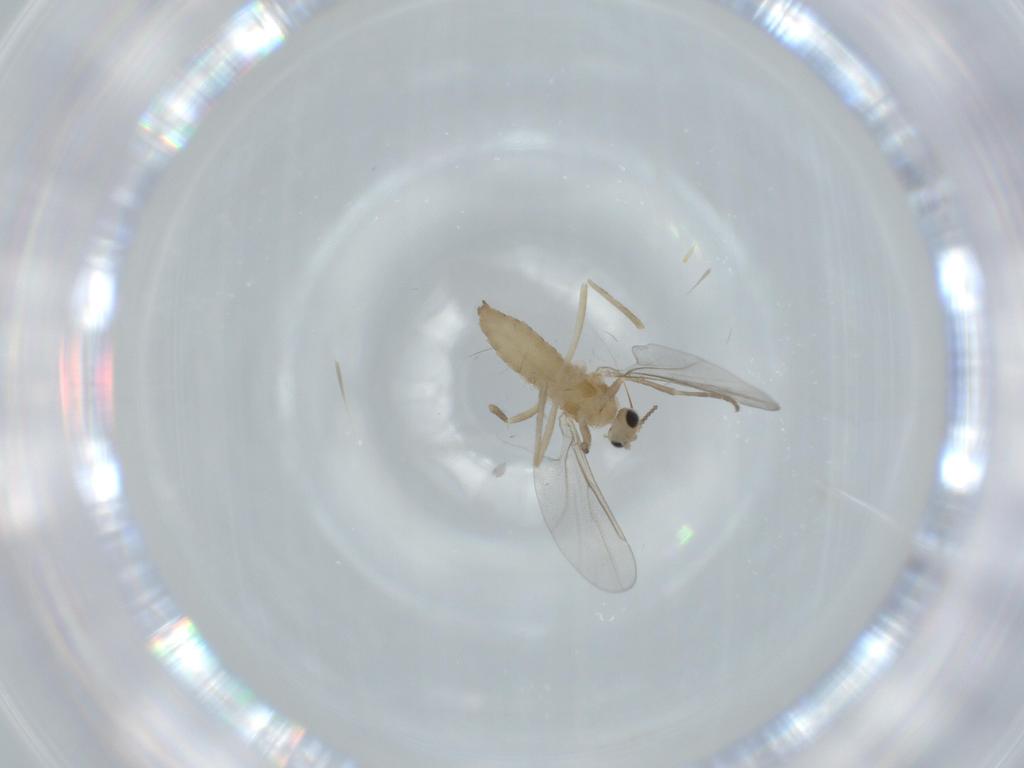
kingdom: Animalia
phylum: Arthropoda
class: Insecta
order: Diptera
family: Cecidomyiidae
